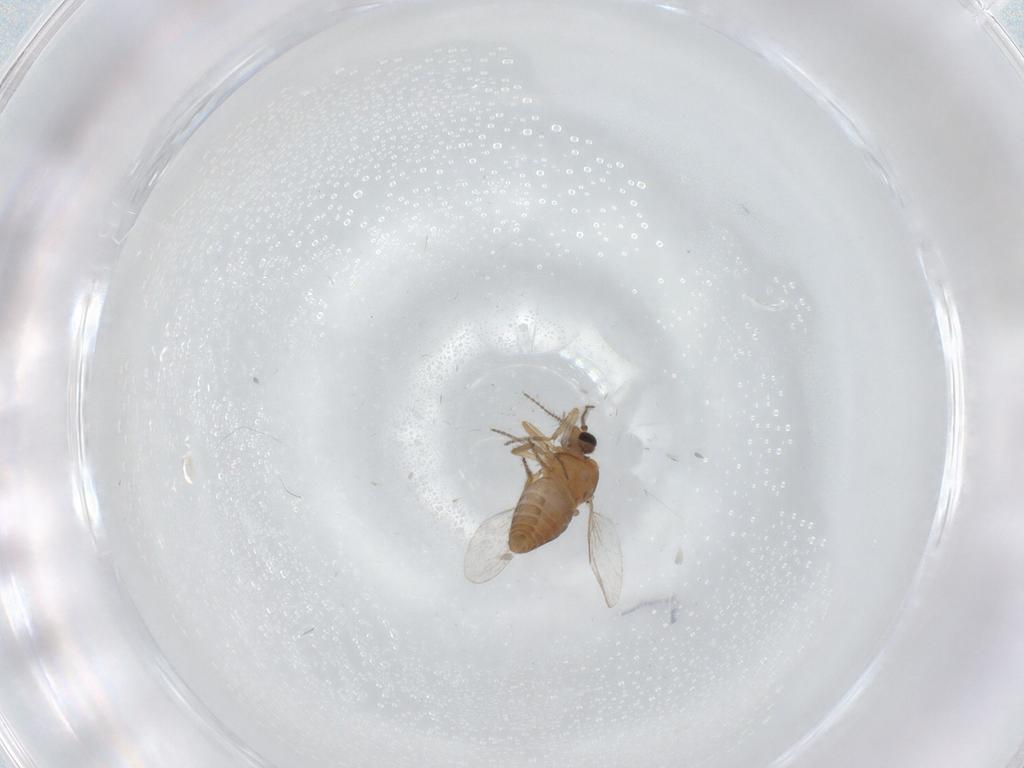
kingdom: Animalia
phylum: Arthropoda
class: Insecta
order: Diptera
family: Ceratopogonidae
